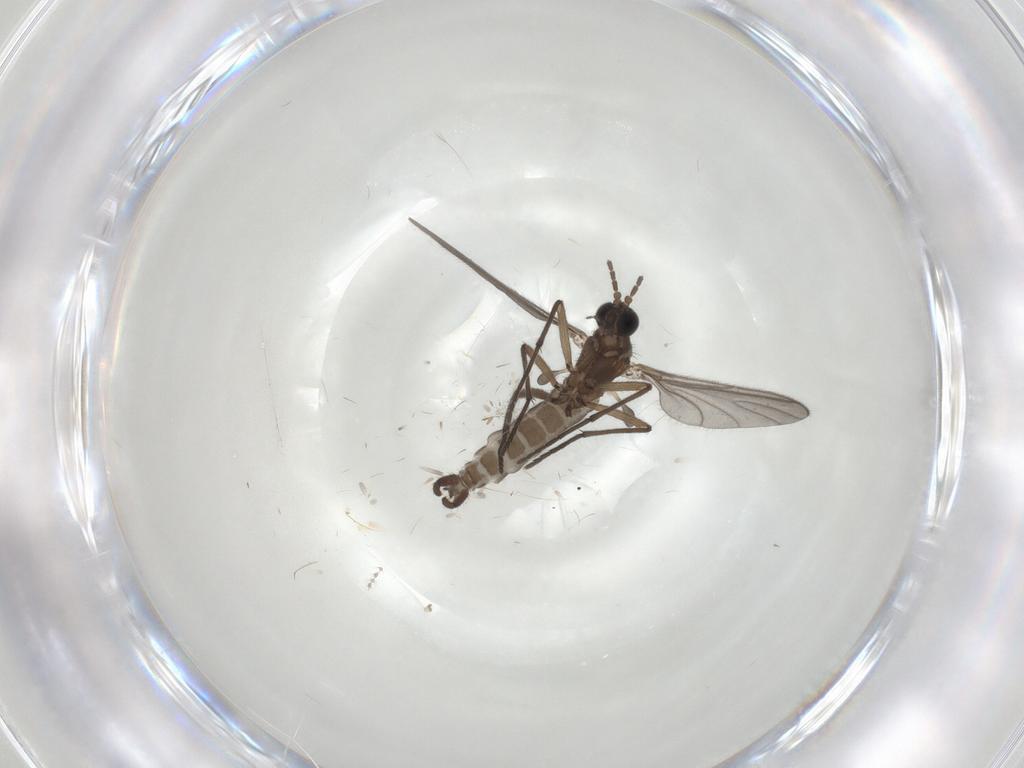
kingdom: Animalia
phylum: Arthropoda
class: Insecta
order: Diptera
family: Sciaridae
